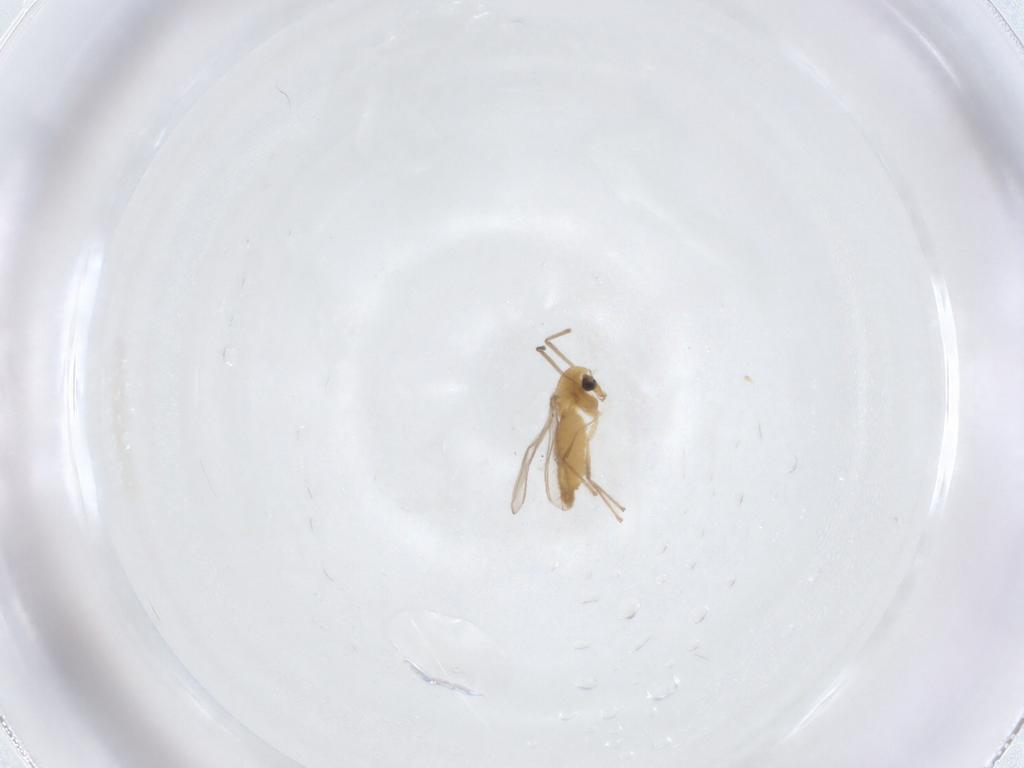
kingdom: Animalia
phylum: Arthropoda
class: Insecta
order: Diptera
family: Chironomidae
